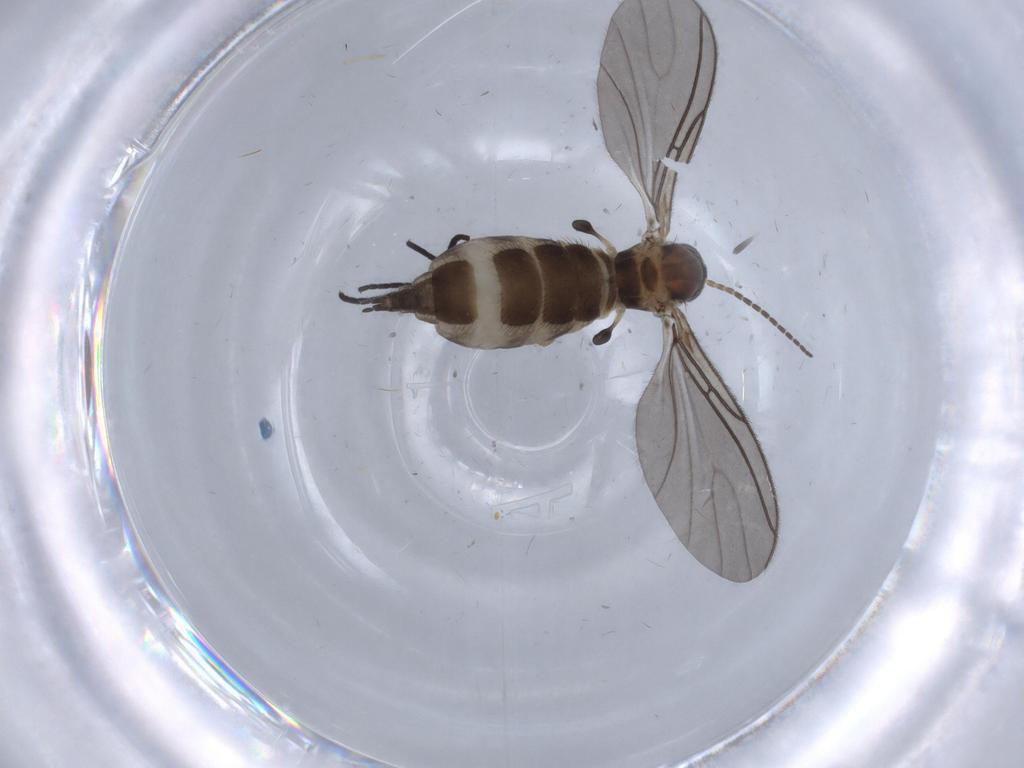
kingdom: Animalia
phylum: Arthropoda
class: Insecta
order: Diptera
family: Sciaridae
